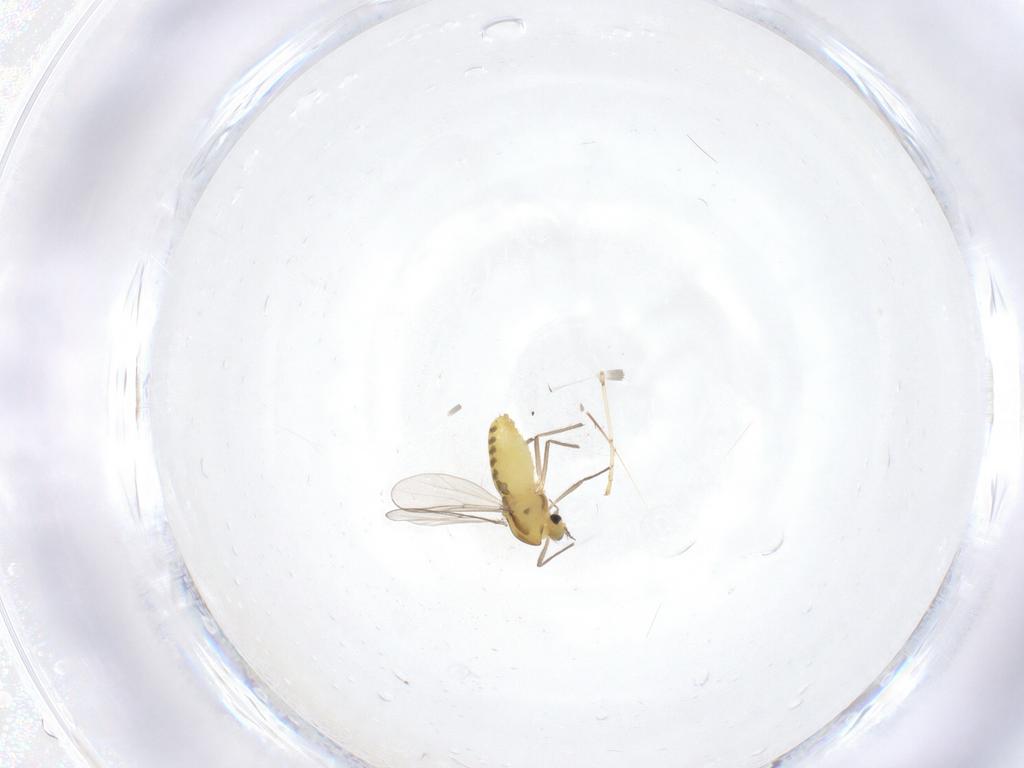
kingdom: Animalia
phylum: Arthropoda
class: Insecta
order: Diptera
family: Chironomidae
